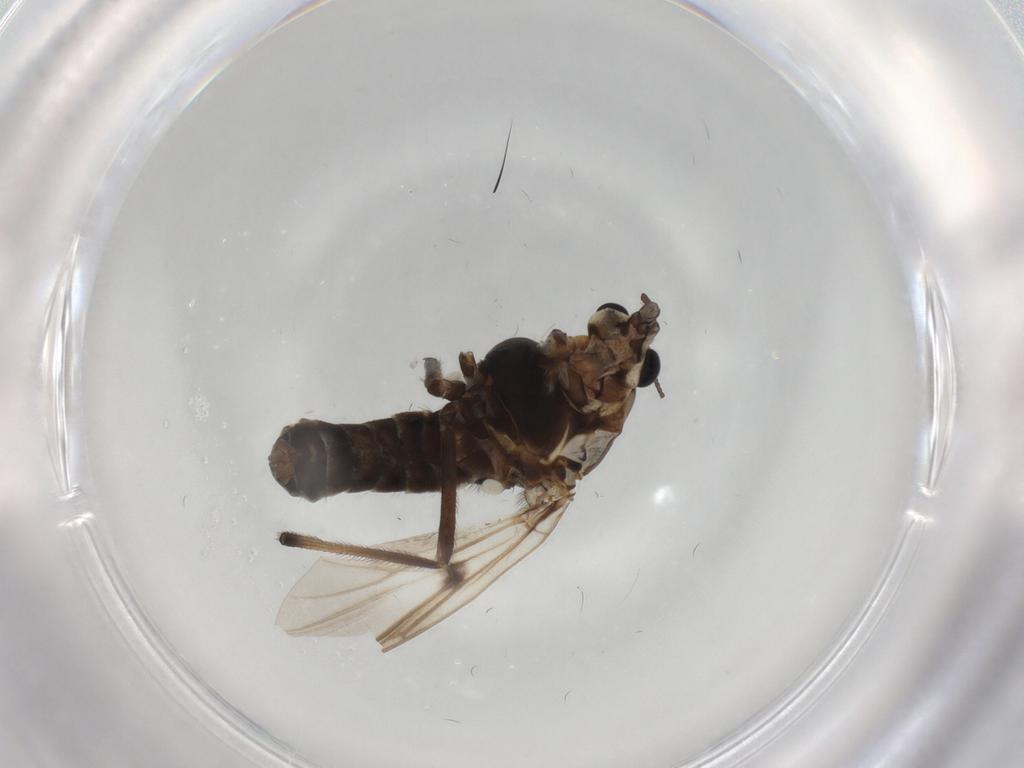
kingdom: Animalia
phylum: Arthropoda
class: Insecta
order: Diptera
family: Chironomidae
